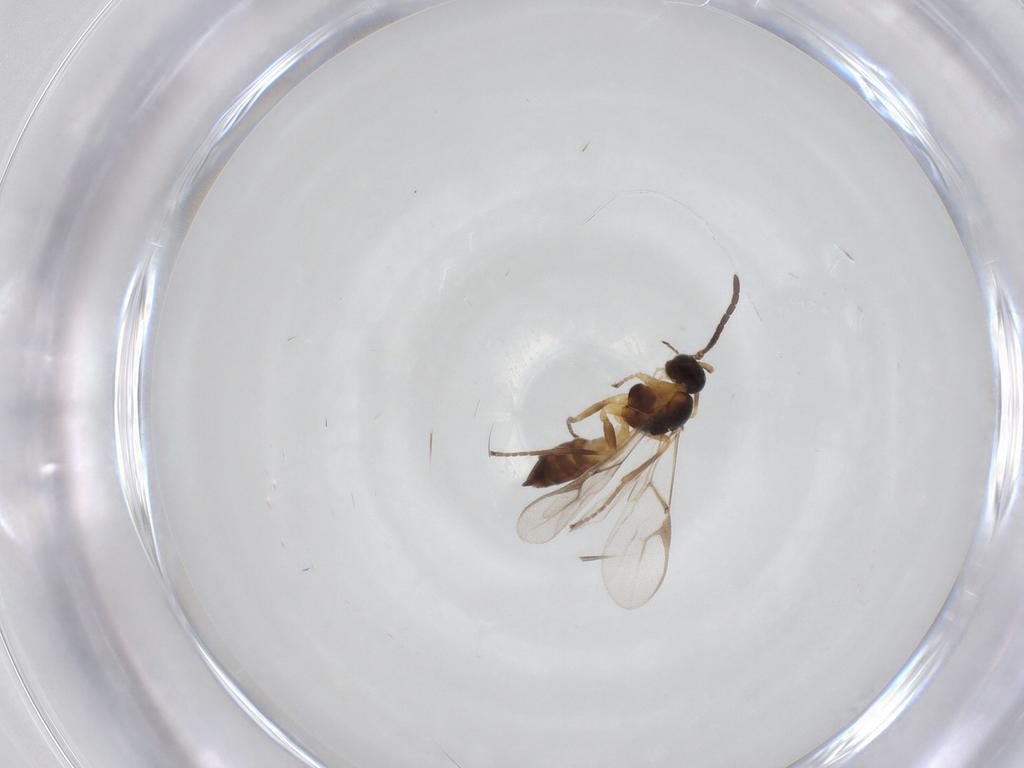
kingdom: Animalia
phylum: Arthropoda
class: Insecta
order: Hymenoptera
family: Braconidae
